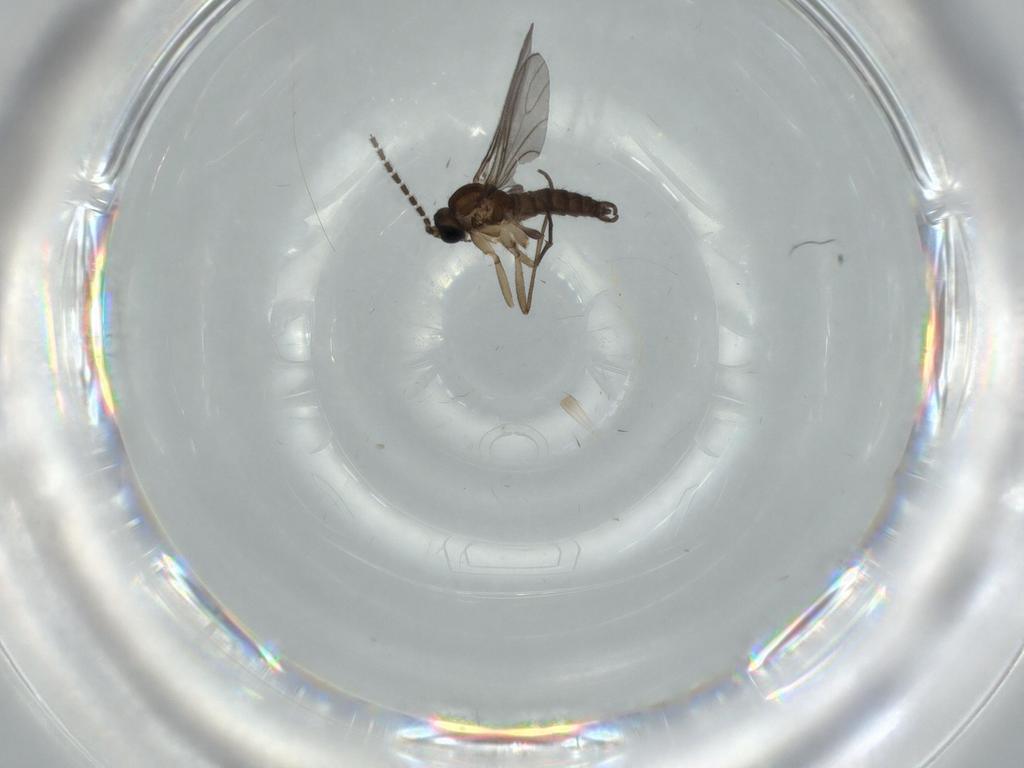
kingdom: Animalia
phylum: Arthropoda
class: Insecta
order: Diptera
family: Sciaridae
